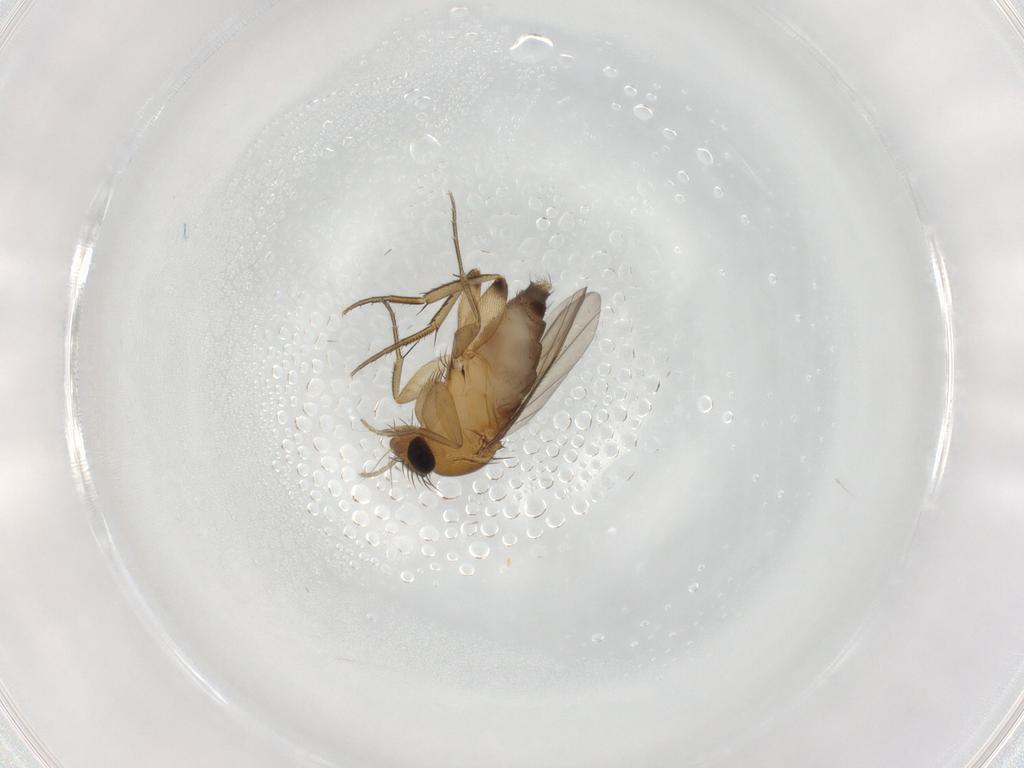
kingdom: Animalia
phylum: Arthropoda
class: Insecta
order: Diptera
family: Phoridae
